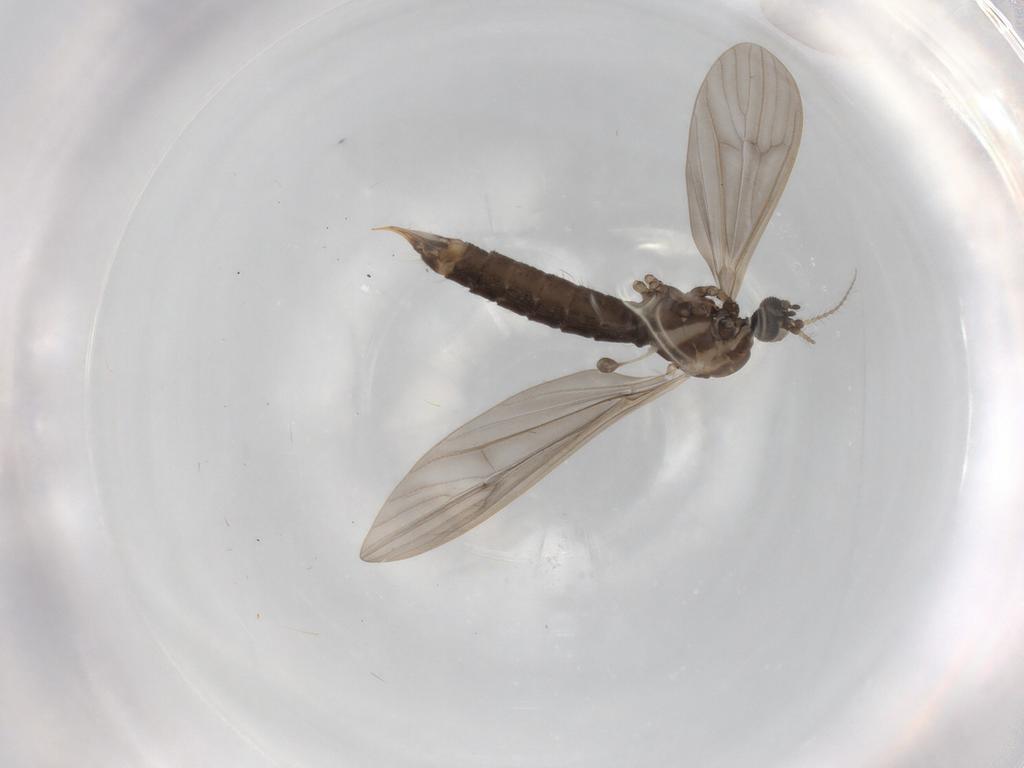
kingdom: Animalia
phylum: Arthropoda
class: Insecta
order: Diptera
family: Limoniidae
